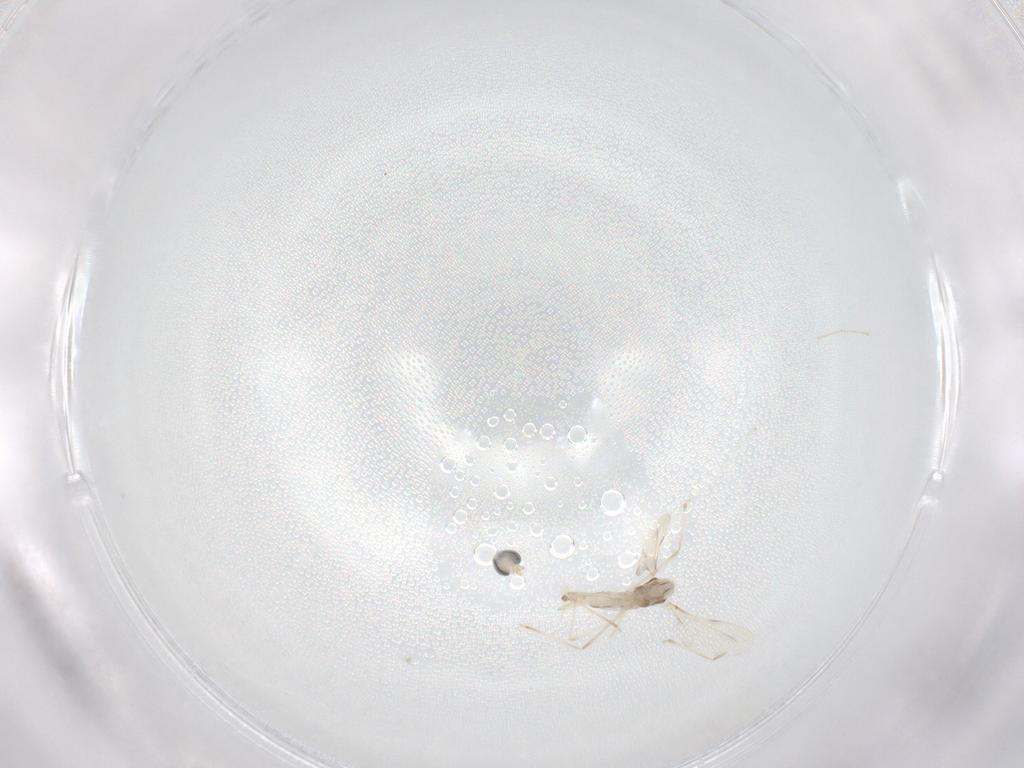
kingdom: Animalia
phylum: Arthropoda
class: Insecta
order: Diptera
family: Cecidomyiidae
